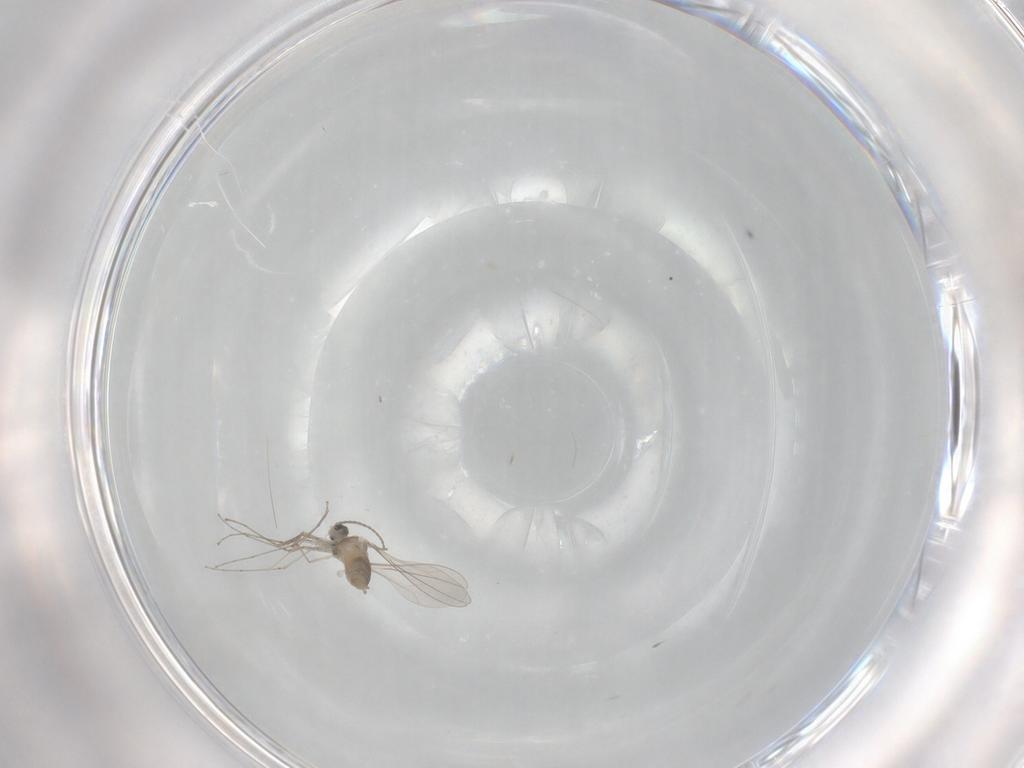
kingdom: Animalia
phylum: Arthropoda
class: Insecta
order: Diptera
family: Cecidomyiidae
